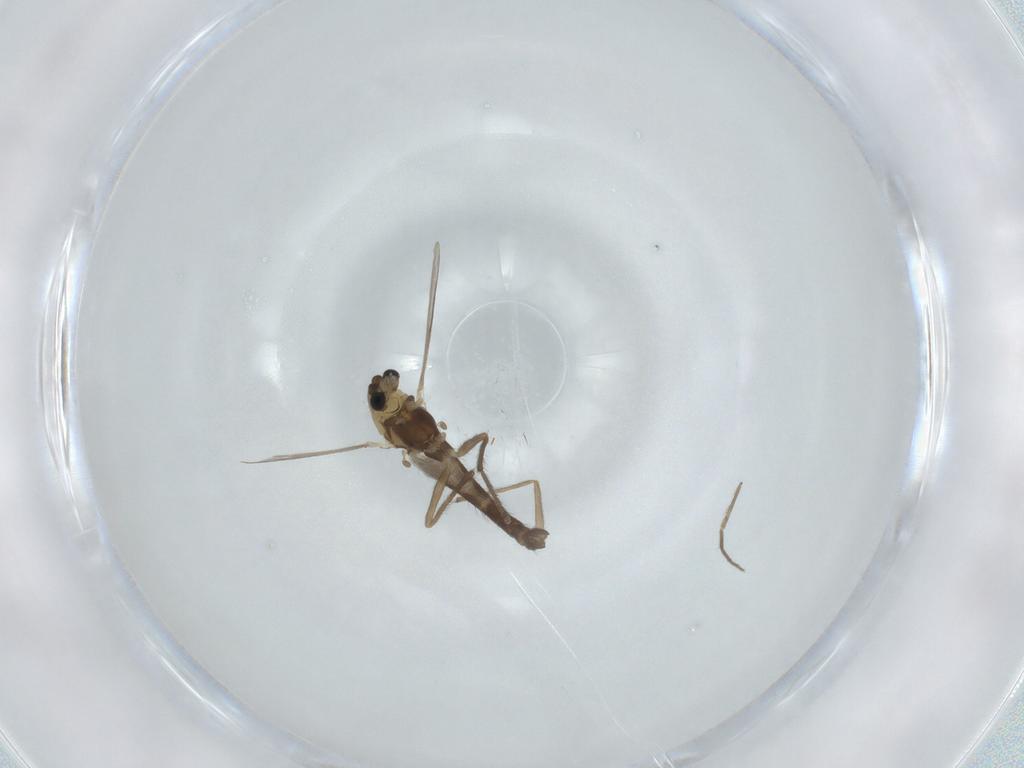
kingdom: Animalia
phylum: Arthropoda
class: Insecta
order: Diptera
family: Chironomidae
